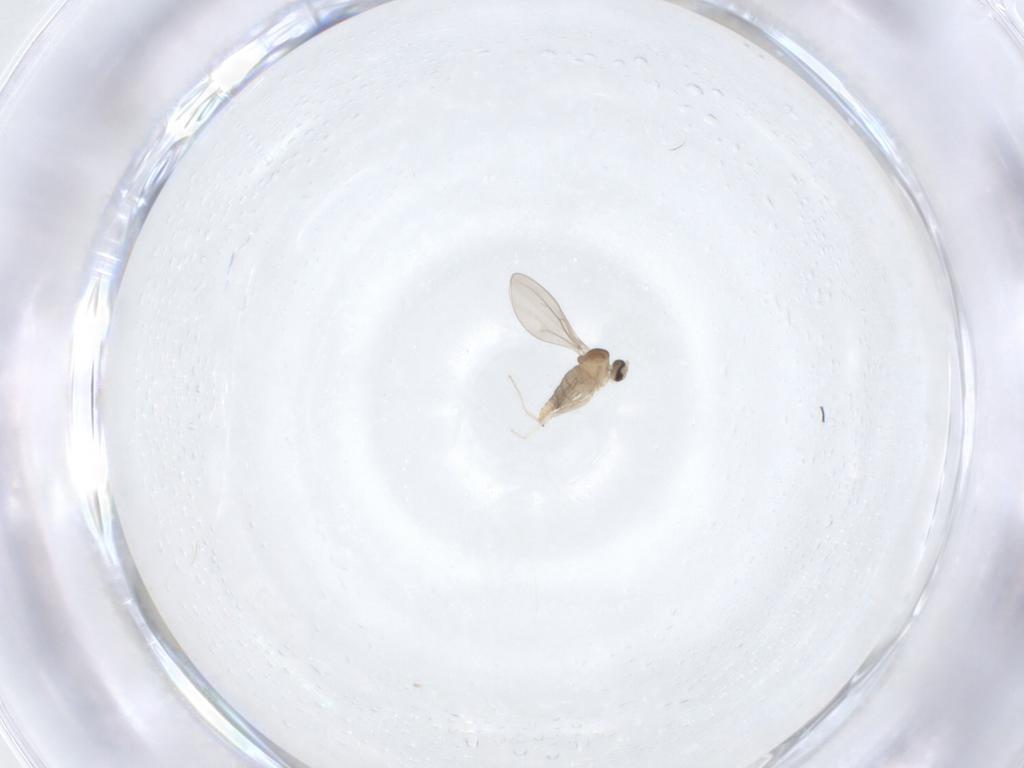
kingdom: Animalia
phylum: Arthropoda
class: Insecta
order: Diptera
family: Cecidomyiidae
